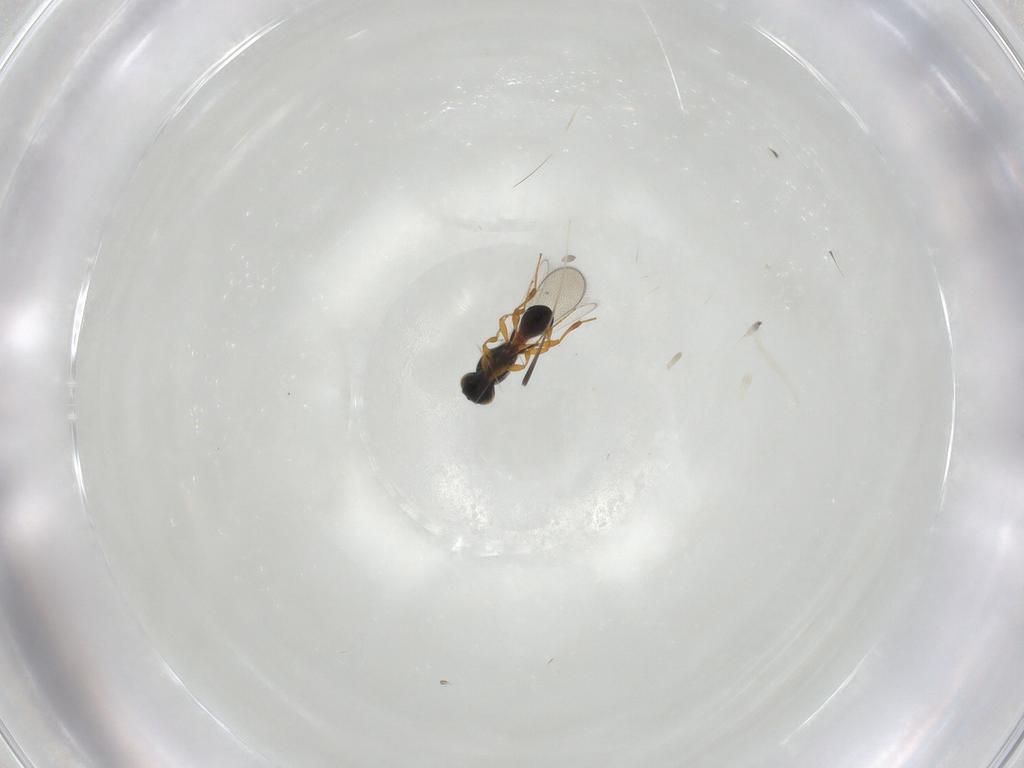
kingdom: Animalia
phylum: Arthropoda
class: Insecta
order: Hymenoptera
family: Platygastridae
